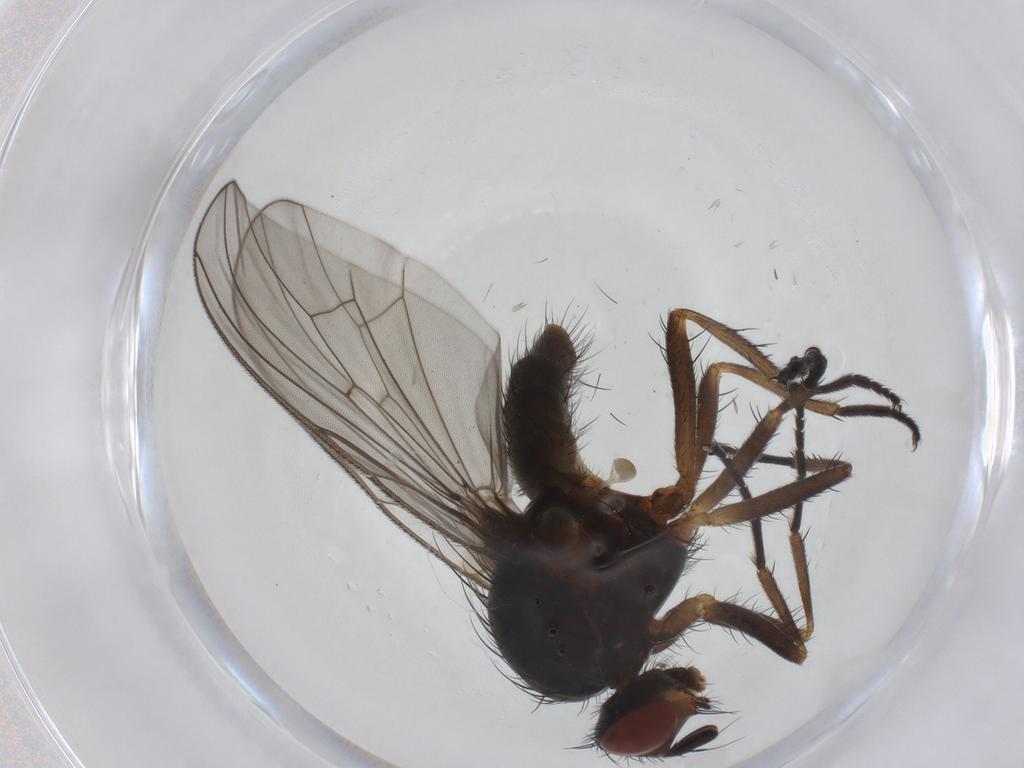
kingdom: Animalia
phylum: Arthropoda
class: Insecta
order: Diptera
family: Anthomyiidae
